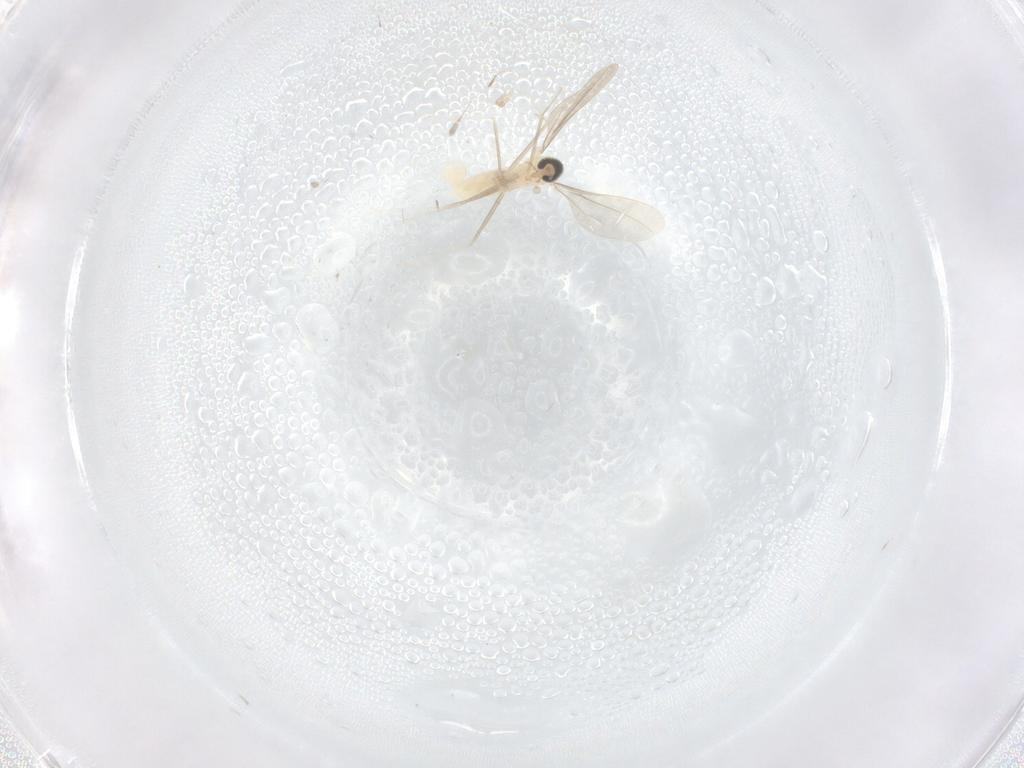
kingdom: Animalia
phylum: Arthropoda
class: Insecta
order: Diptera
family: Cecidomyiidae
